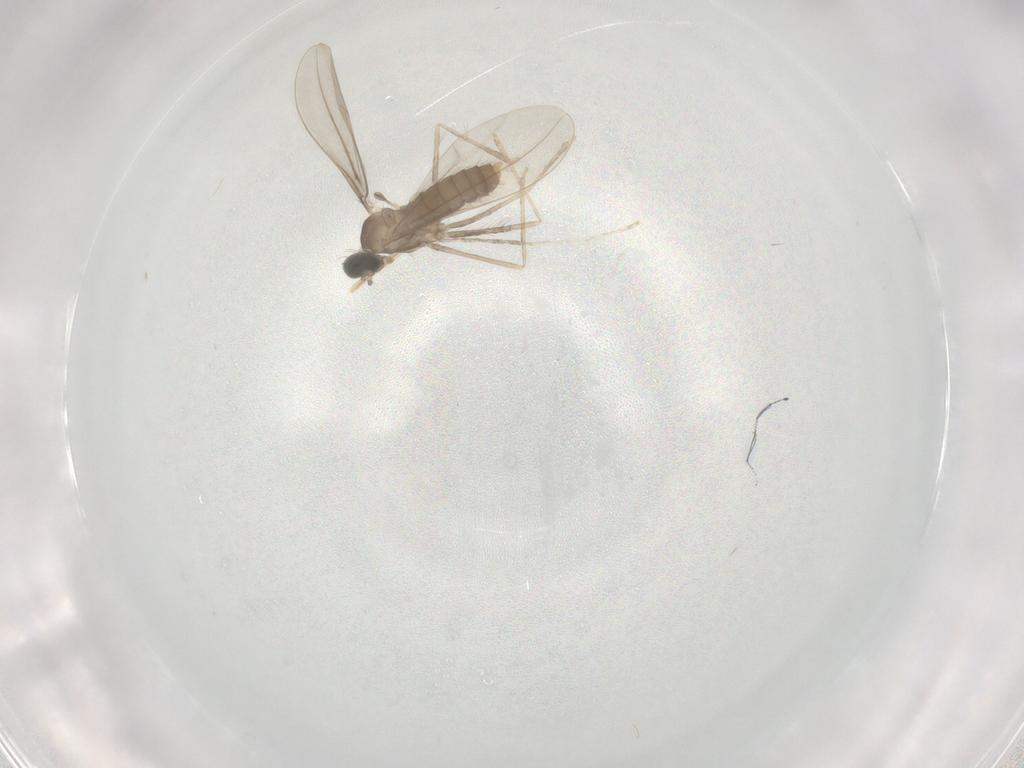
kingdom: Animalia
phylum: Arthropoda
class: Insecta
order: Diptera
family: Cecidomyiidae
